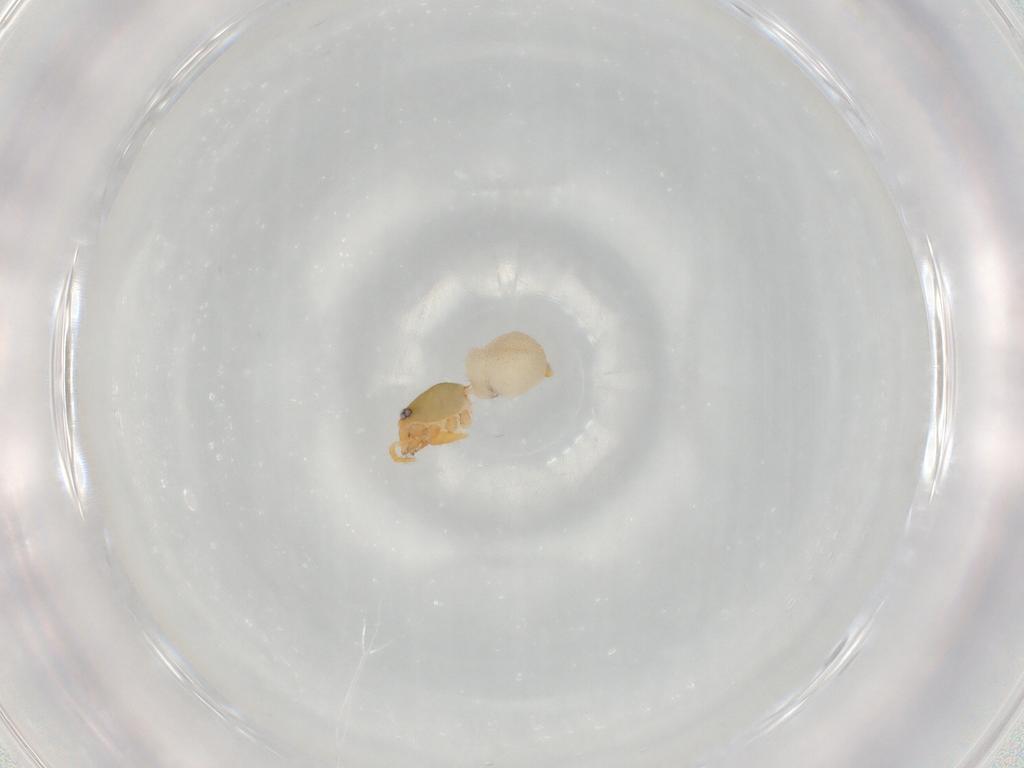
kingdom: Animalia
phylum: Arthropoda
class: Arachnida
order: Araneae
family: Oonopidae
